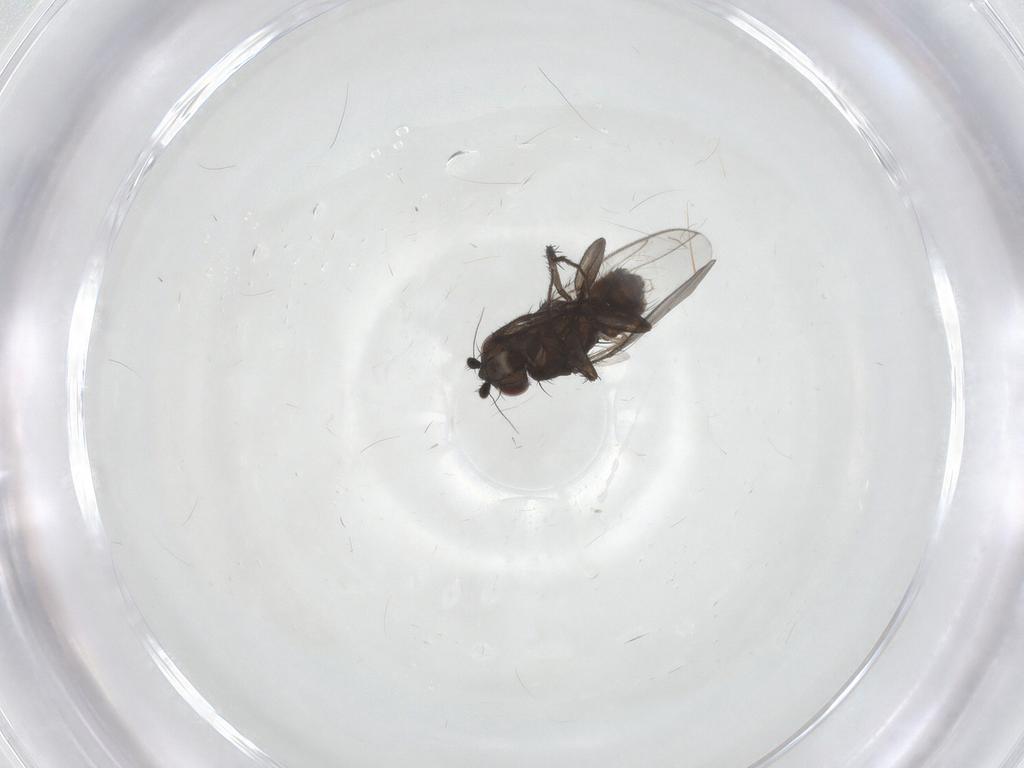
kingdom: Animalia
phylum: Arthropoda
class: Insecta
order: Diptera
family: Sphaeroceridae
